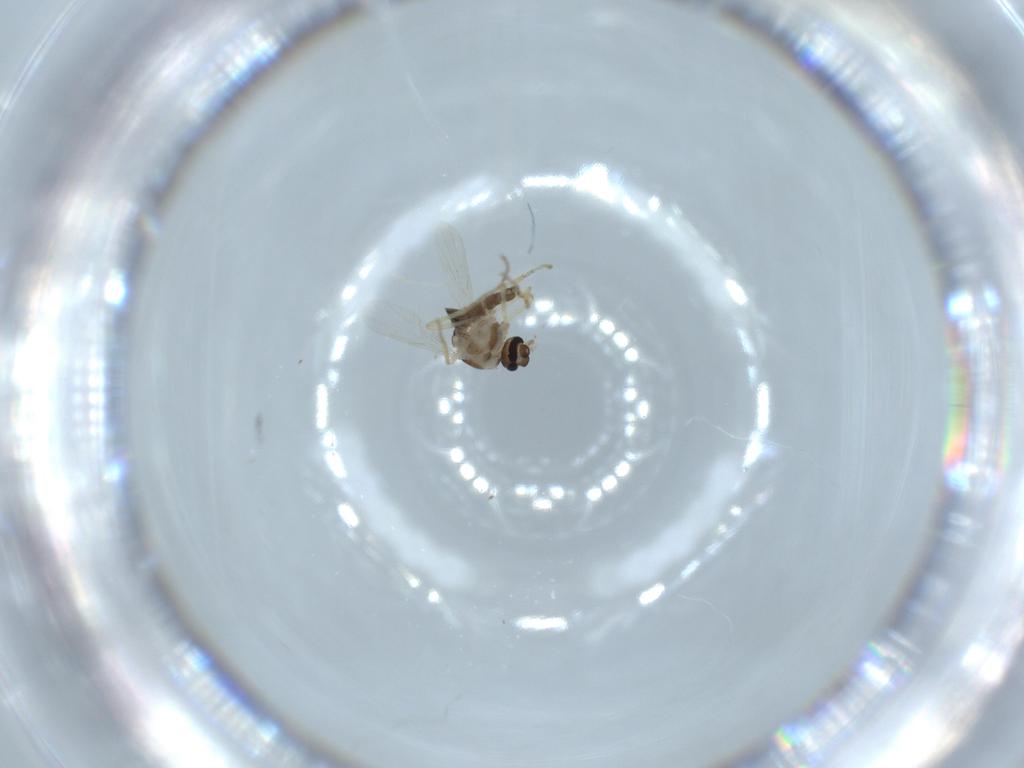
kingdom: Animalia
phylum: Arthropoda
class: Insecta
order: Diptera
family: Ceratopogonidae
